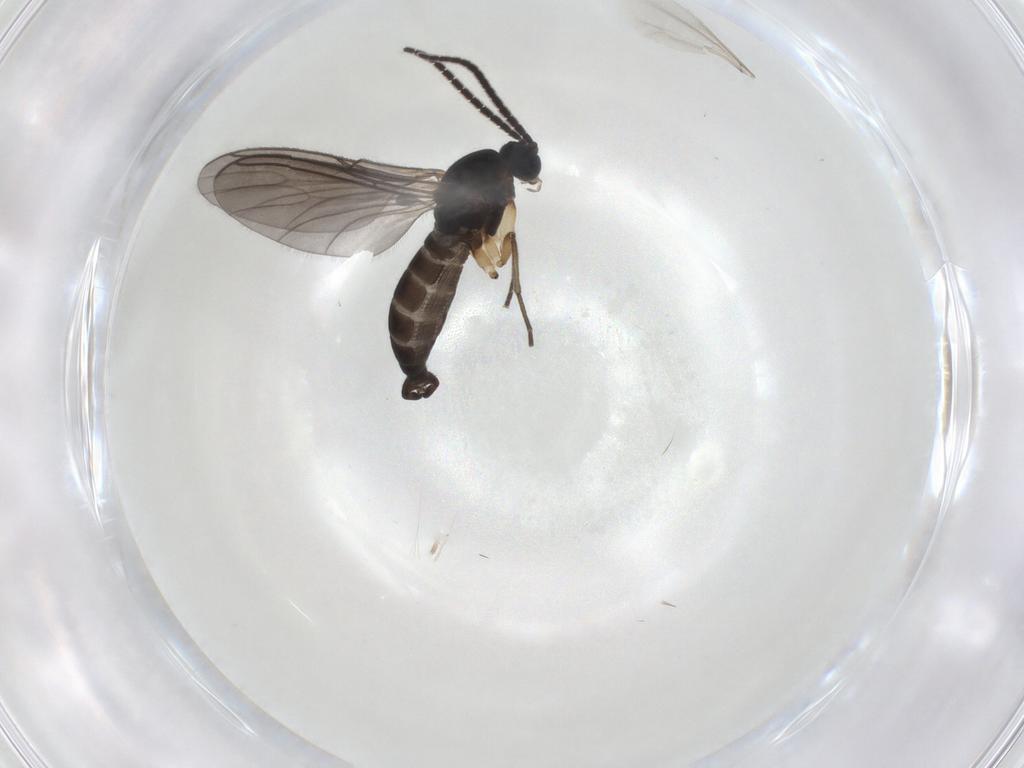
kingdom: Animalia
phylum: Arthropoda
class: Insecta
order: Diptera
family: Sciaridae
